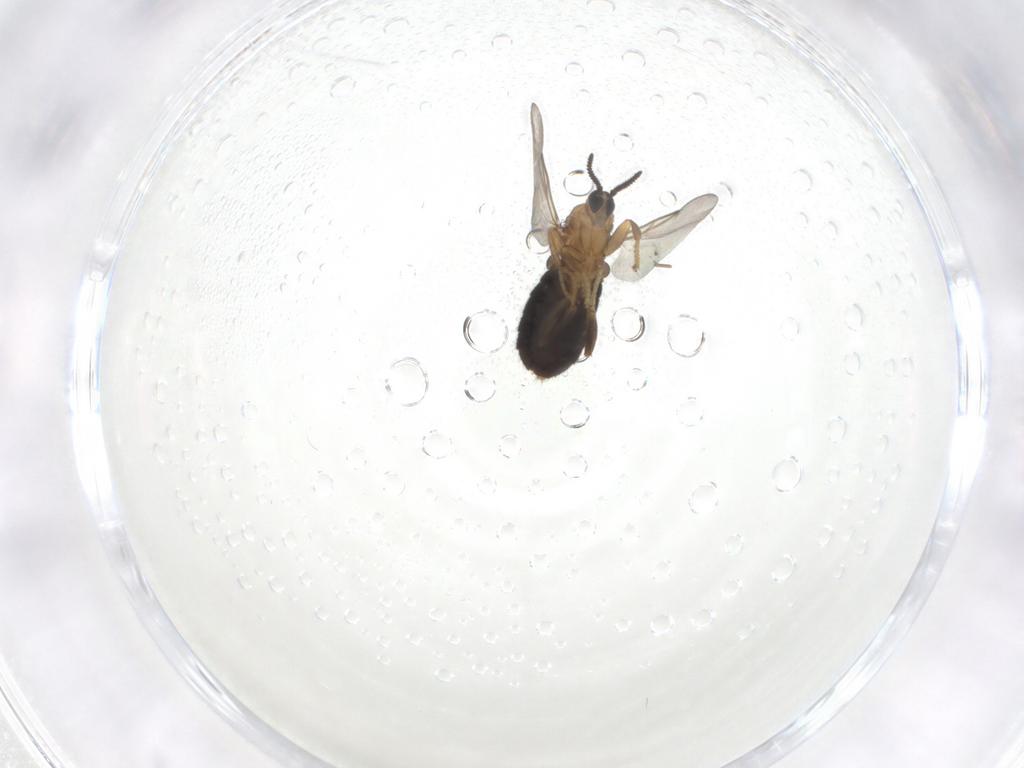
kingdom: Animalia
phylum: Arthropoda
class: Insecta
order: Diptera
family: Scatopsidae
